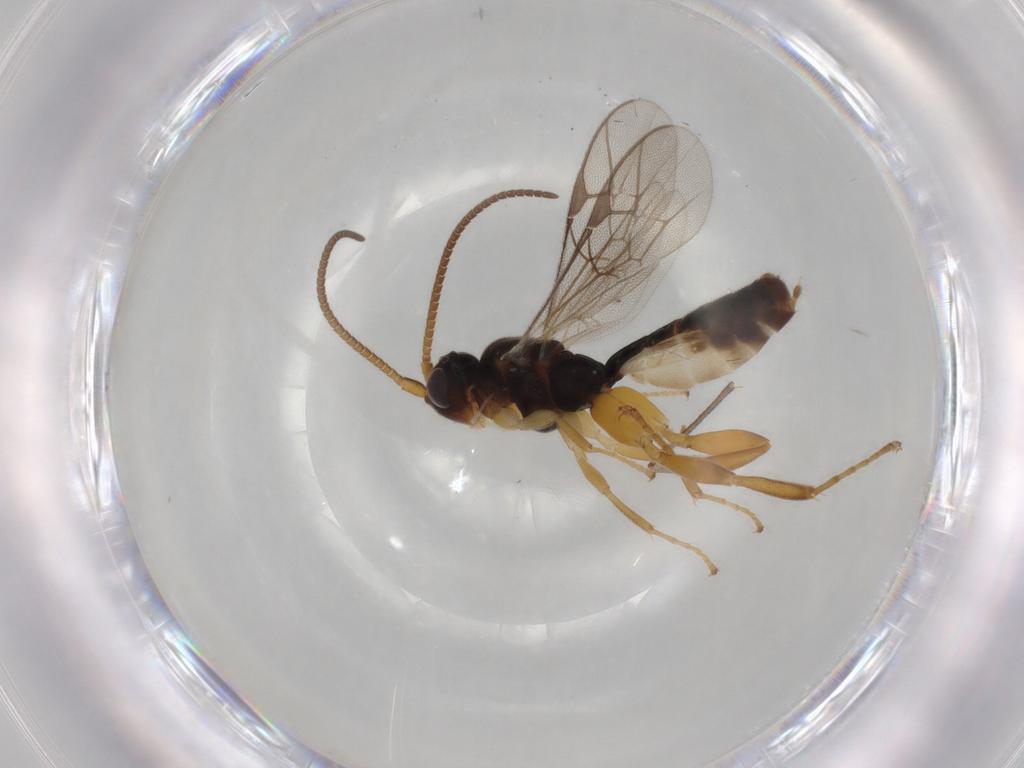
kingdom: Animalia
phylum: Arthropoda
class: Insecta
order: Hymenoptera
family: Ichneumonidae
